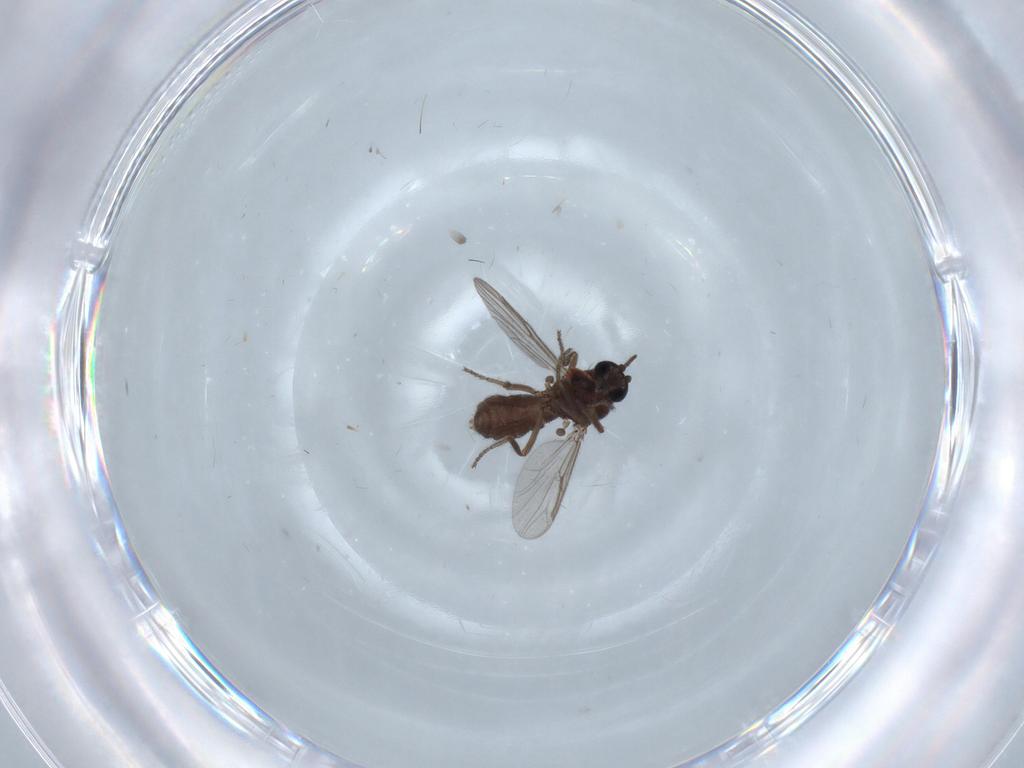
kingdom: Animalia
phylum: Arthropoda
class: Insecta
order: Diptera
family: Ceratopogonidae
